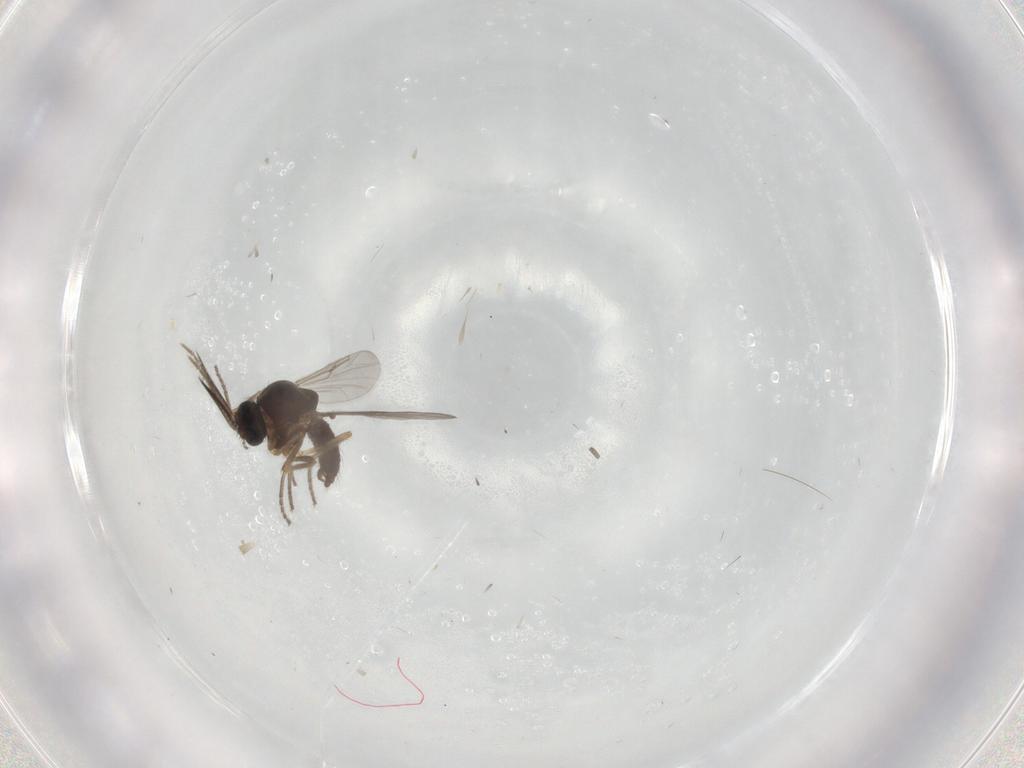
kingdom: Animalia
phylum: Arthropoda
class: Insecta
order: Diptera
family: Ceratopogonidae
